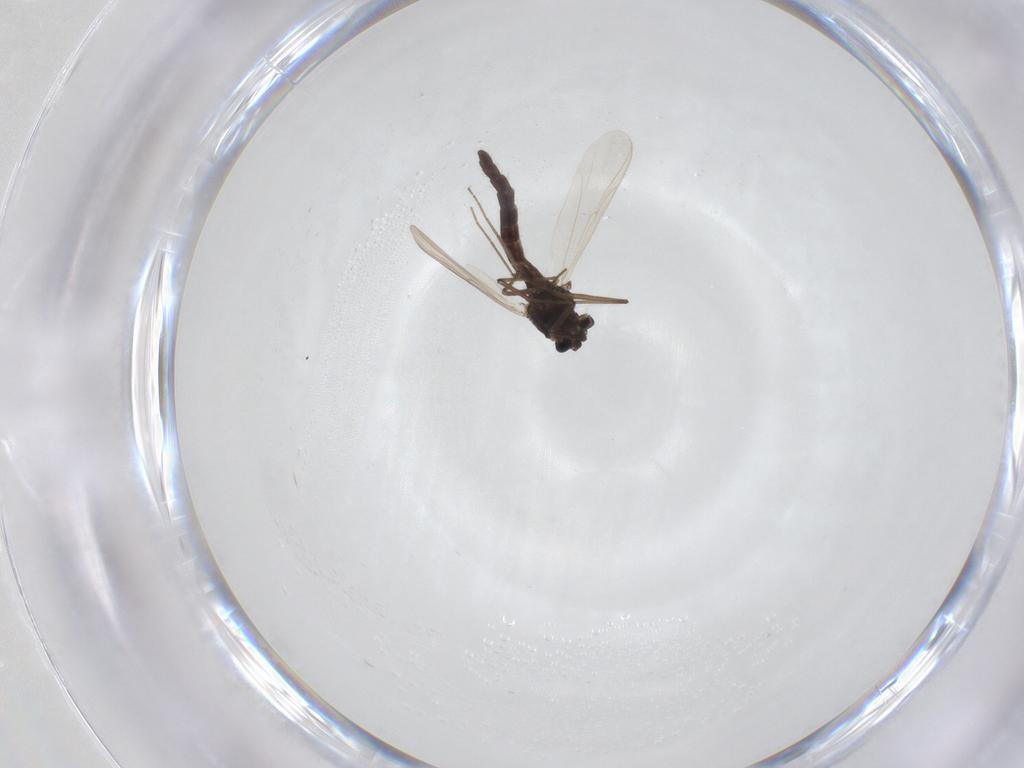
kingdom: Animalia
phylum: Arthropoda
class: Insecta
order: Diptera
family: Chironomidae
